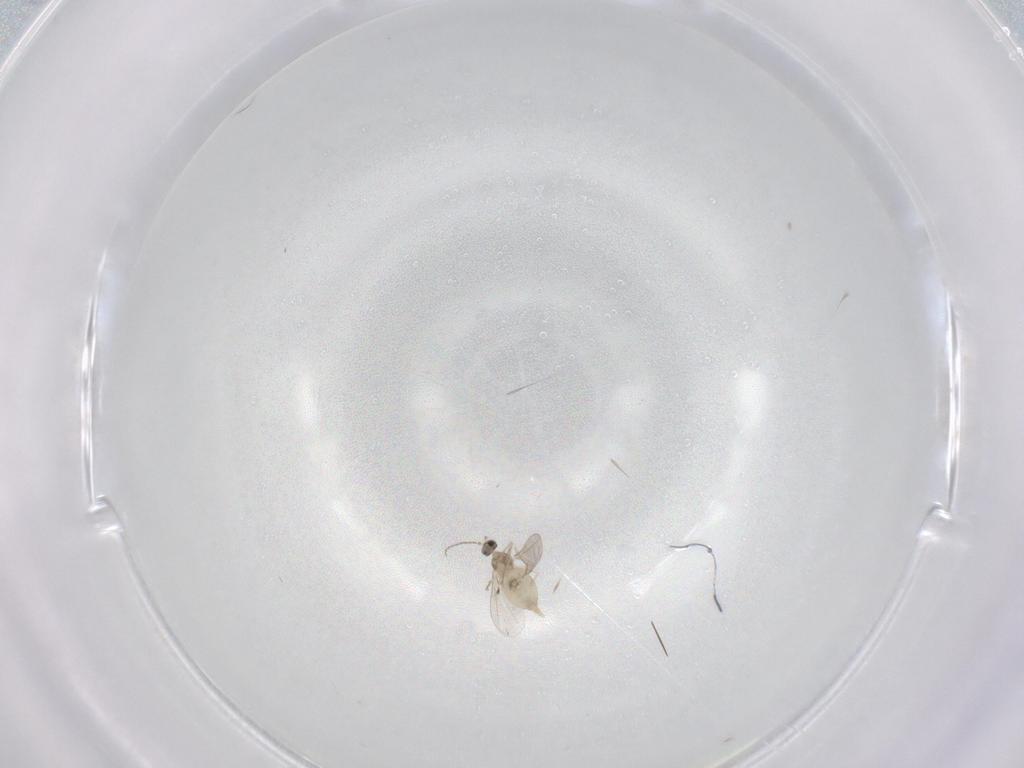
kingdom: Animalia
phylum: Arthropoda
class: Insecta
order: Diptera
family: Cecidomyiidae
